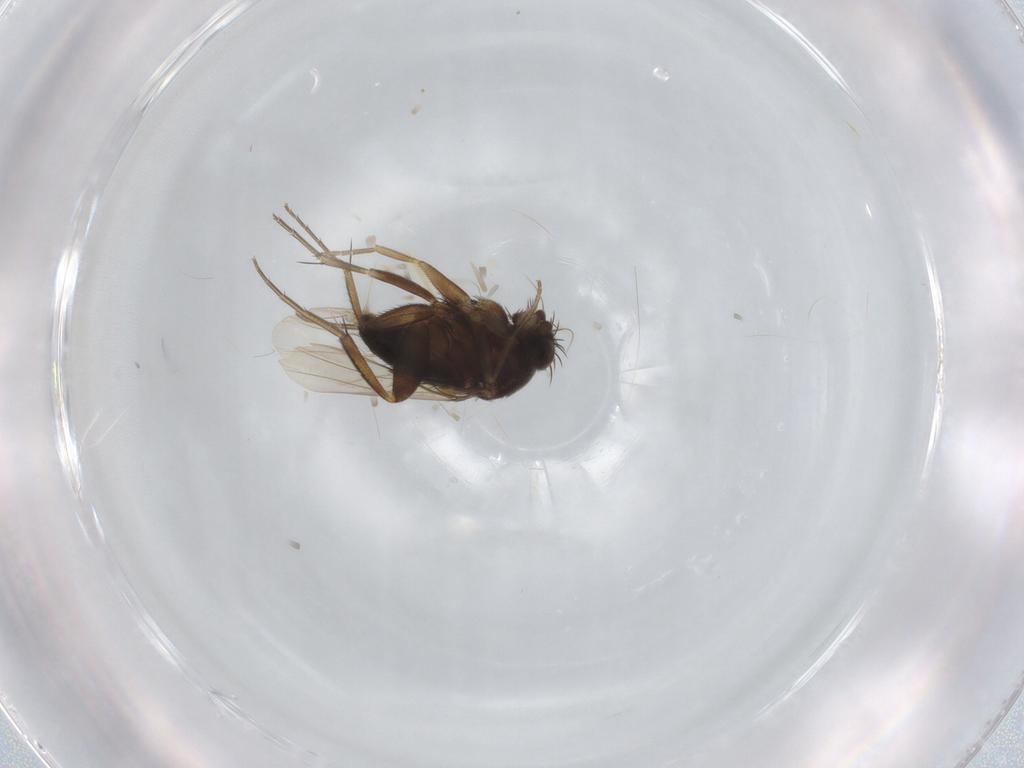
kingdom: Animalia
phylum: Arthropoda
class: Insecta
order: Diptera
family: Phoridae
